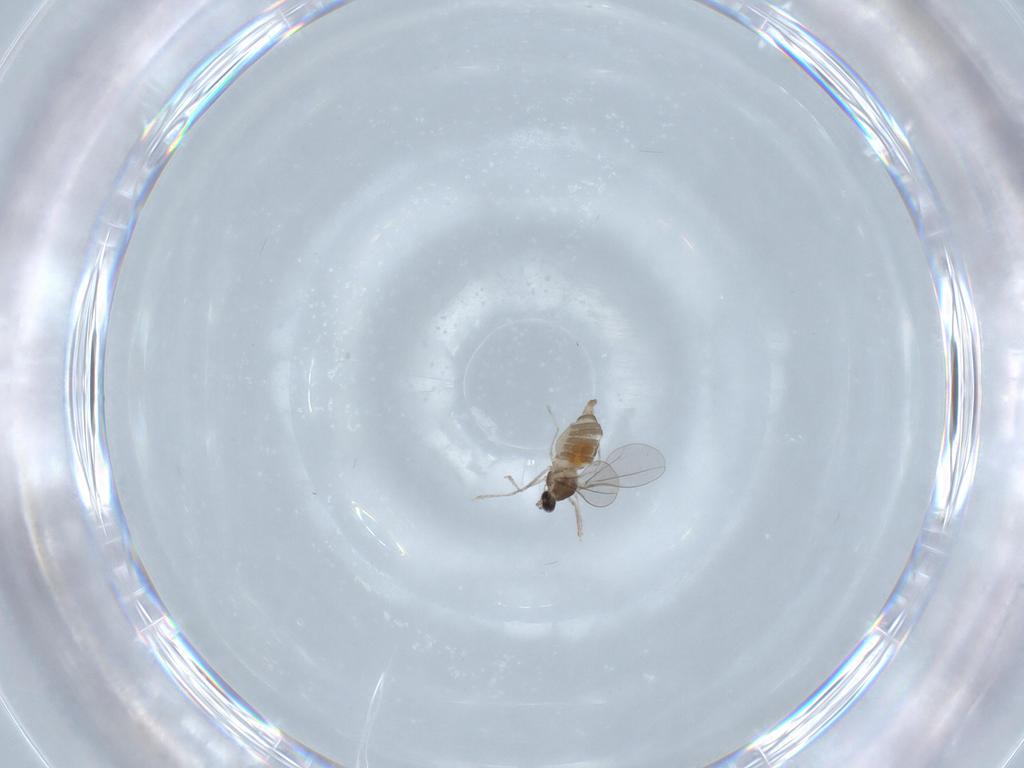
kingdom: Animalia
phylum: Arthropoda
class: Insecta
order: Diptera
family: Cecidomyiidae
